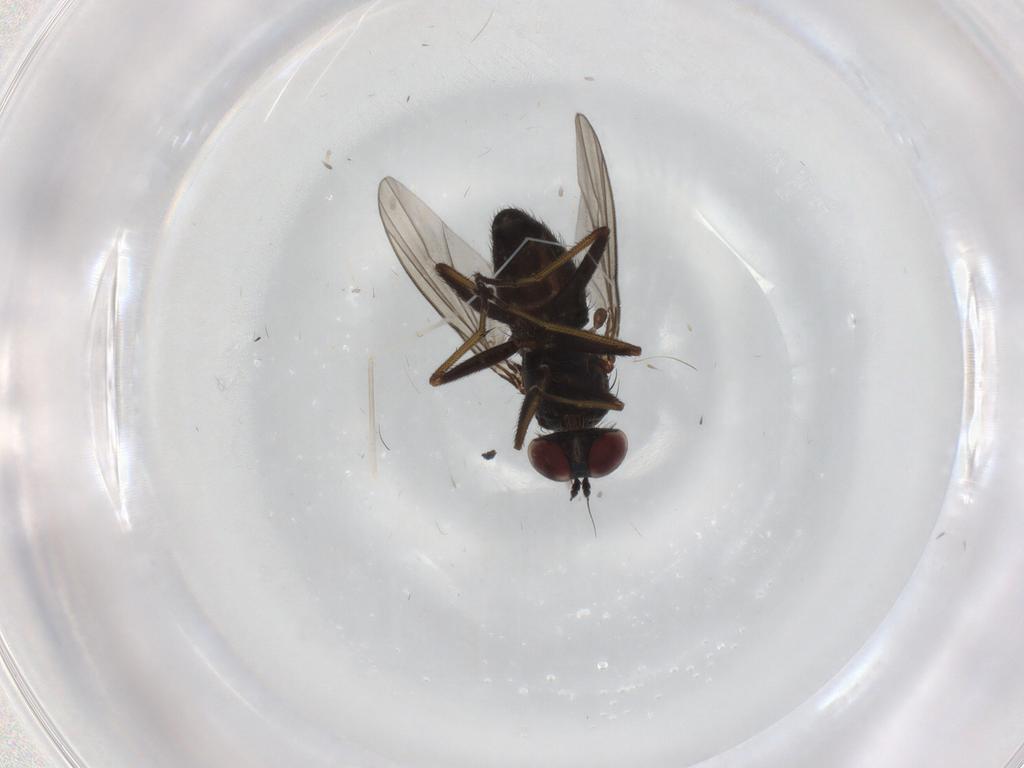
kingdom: Animalia
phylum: Arthropoda
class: Insecta
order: Diptera
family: Dolichopodidae
